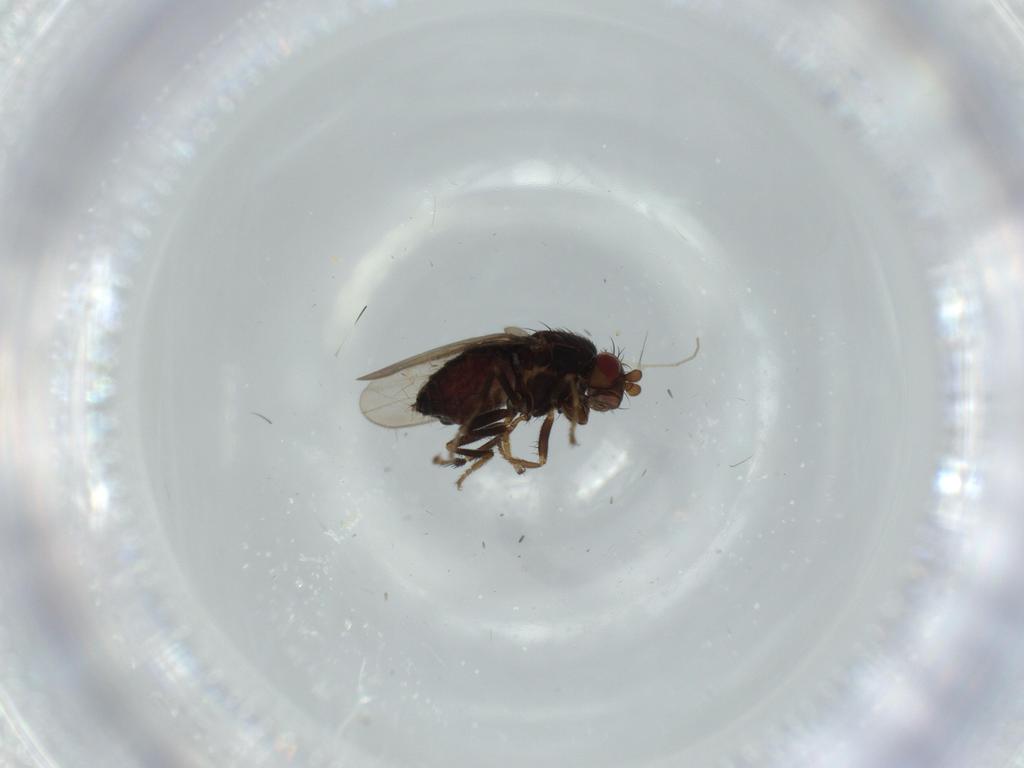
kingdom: Animalia
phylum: Arthropoda
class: Insecta
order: Diptera
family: Sphaeroceridae
